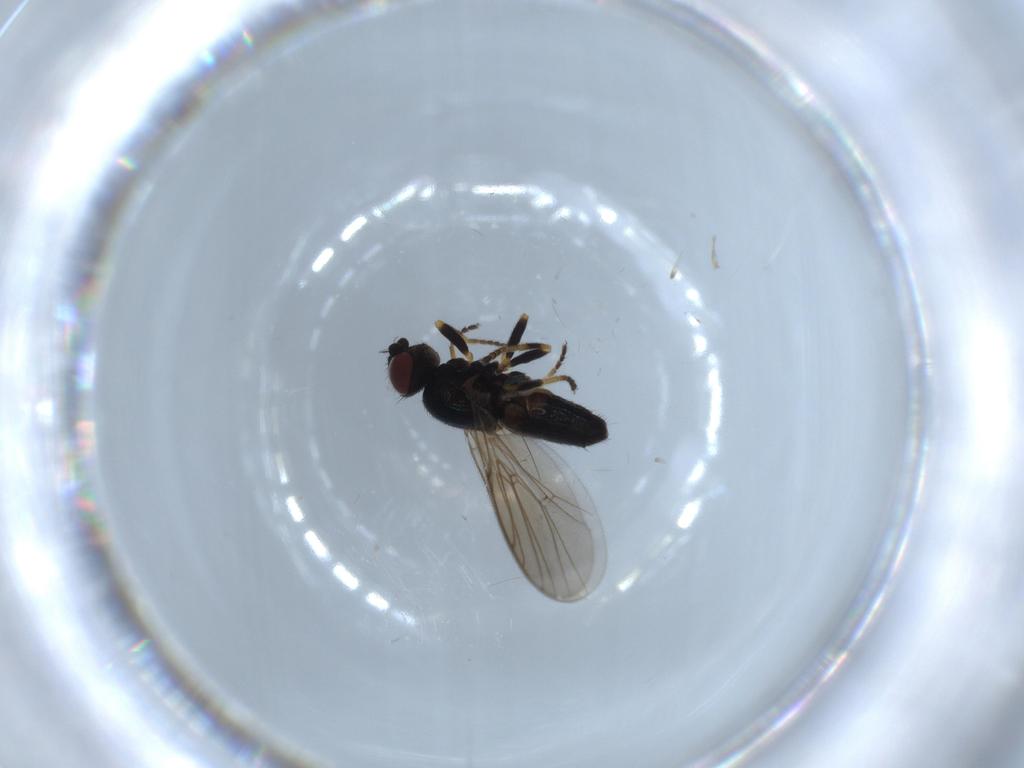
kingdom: Animalia
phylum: Arthropoda
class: Insecta
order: Diptera
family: Chloropidae
